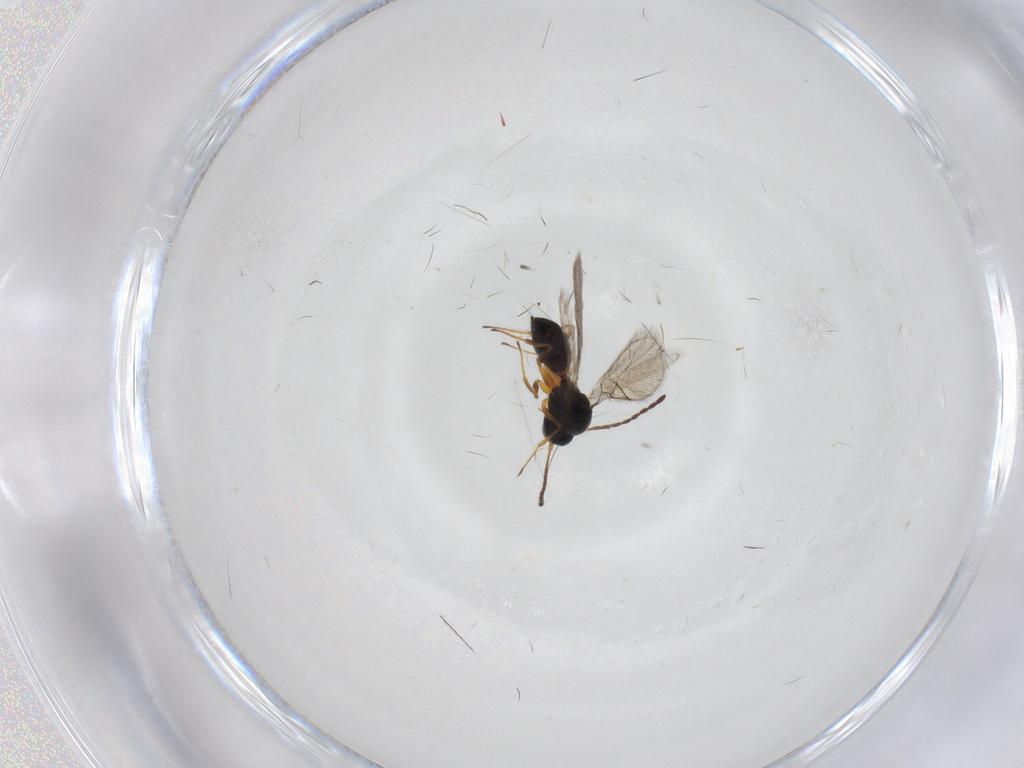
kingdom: Animalia
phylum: Arthropoda
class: Insecta
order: Hymenoptera
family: Figitidae
